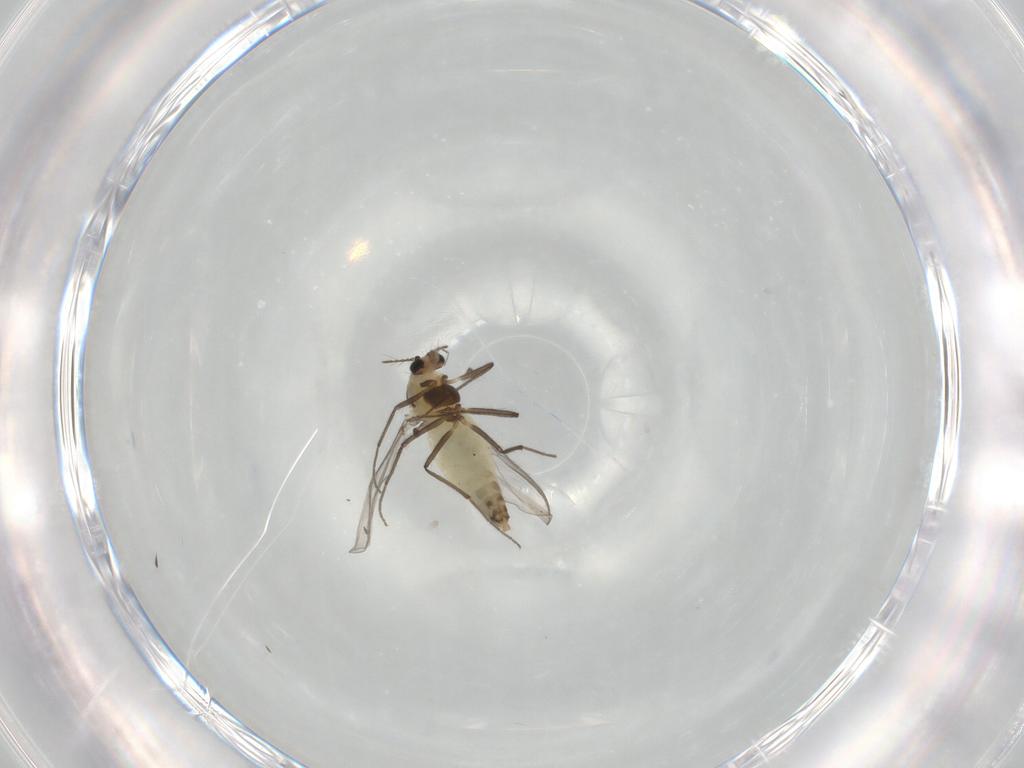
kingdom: Animalia
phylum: Arthropoda
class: Insecta
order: Diptera
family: Chironomidae
